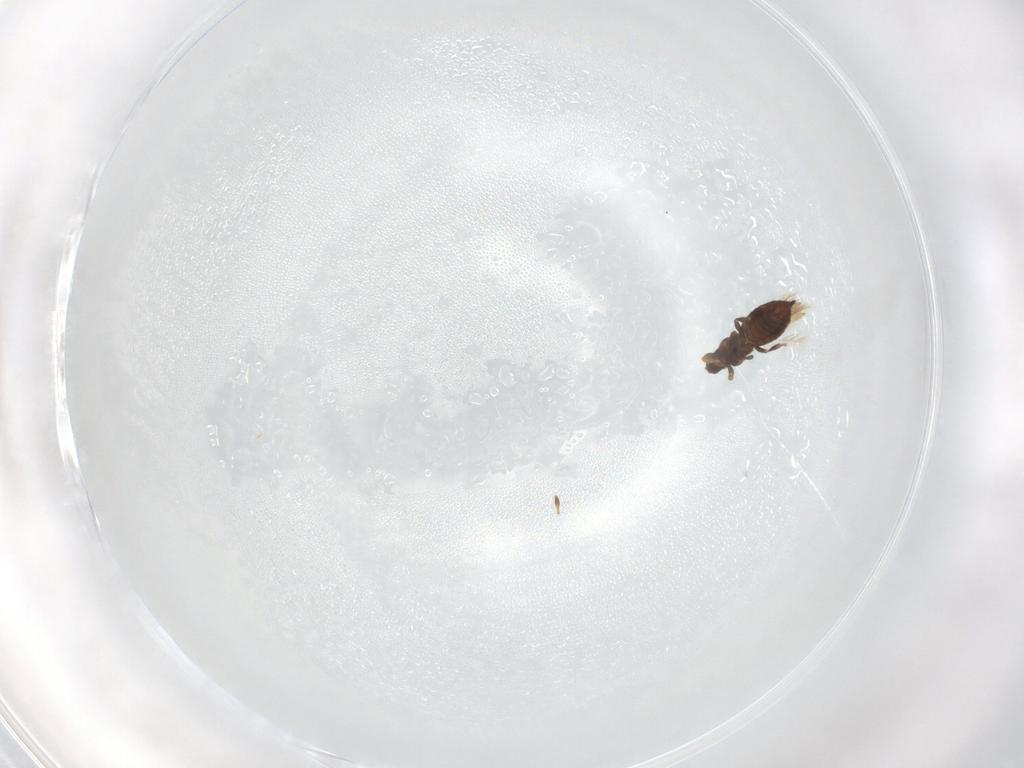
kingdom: Animalia
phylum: Arthropoda
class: Insecta
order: Thysanoptera
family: Thripidae
